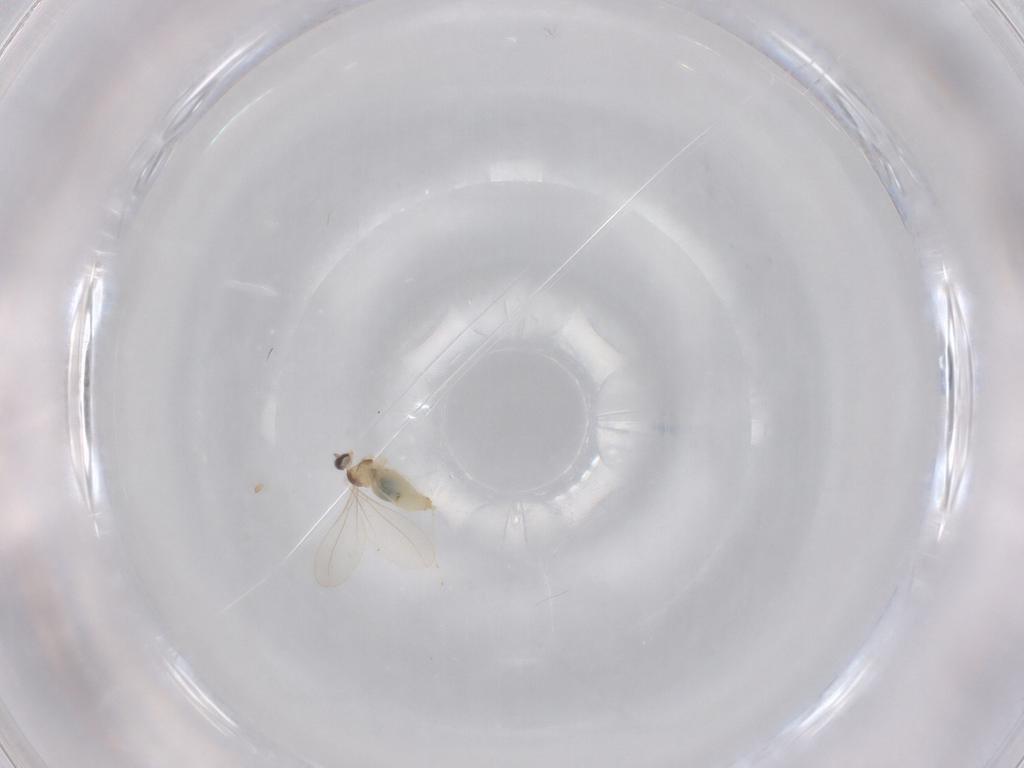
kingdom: Animalia
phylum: Arthropoda
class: Insecta
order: Diptera
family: Cecidomyiidae
